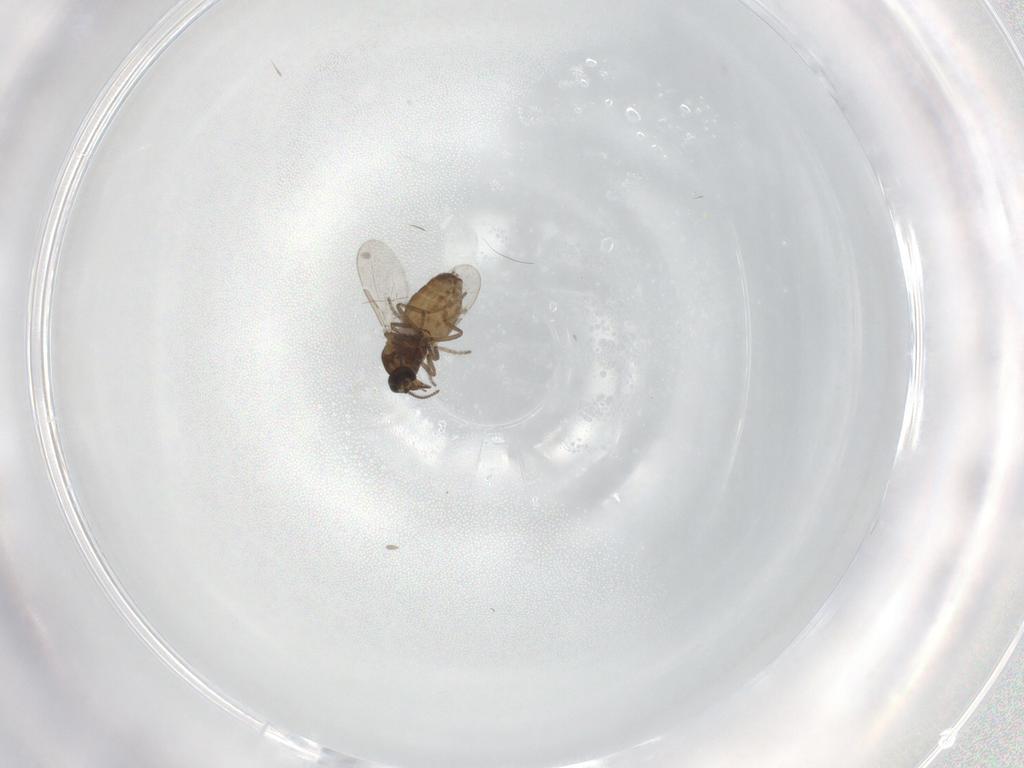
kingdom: Animalia
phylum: Arthropoda
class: Insecta
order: Diptera
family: Ceratopogonidae
